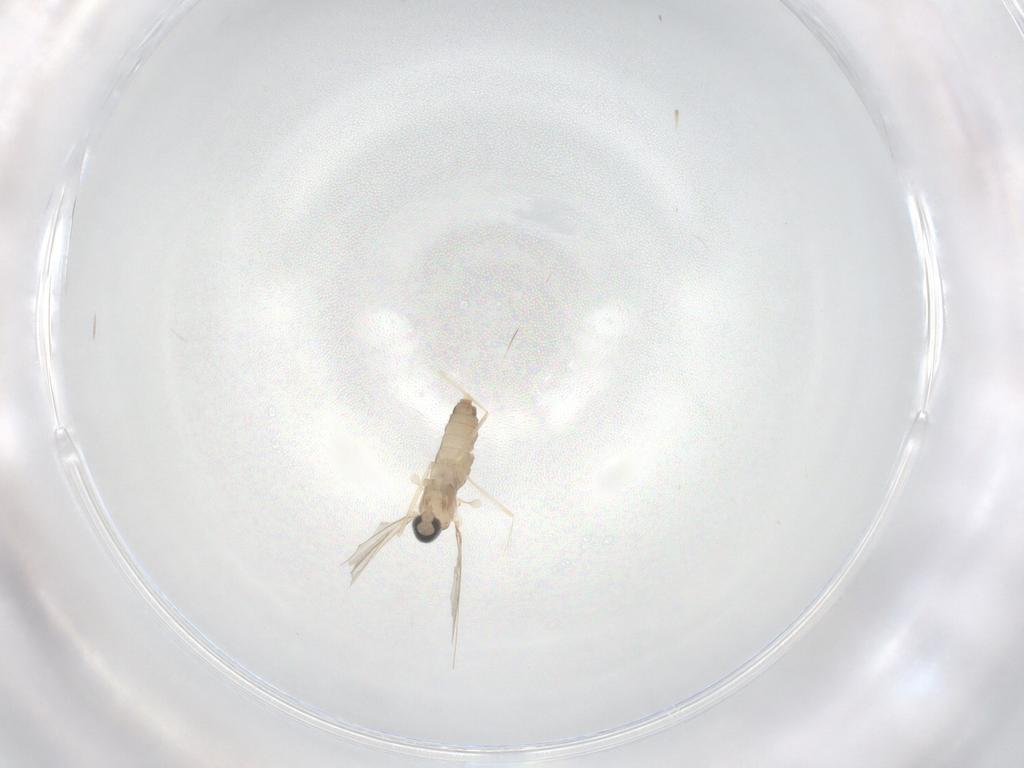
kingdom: Animalia
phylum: Arthropoda
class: Insecta
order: Diptera
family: Cecidomyiidae
